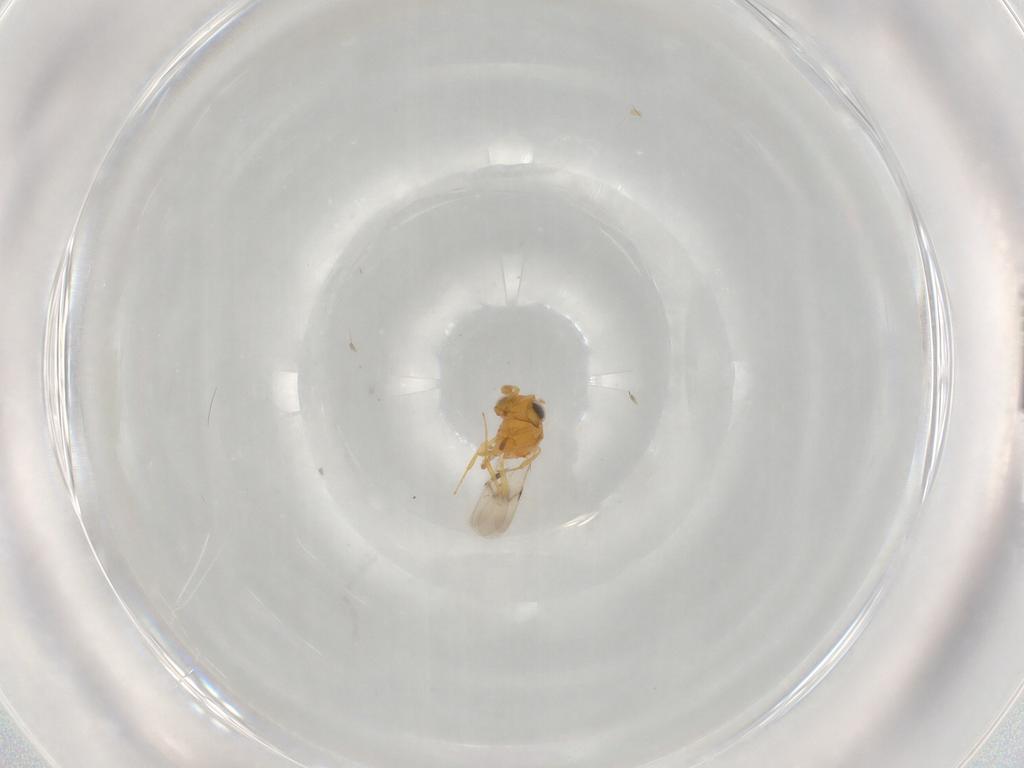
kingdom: Animalia
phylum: Arthropoda
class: Insecta
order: Hymenoptera
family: Scelionidae
